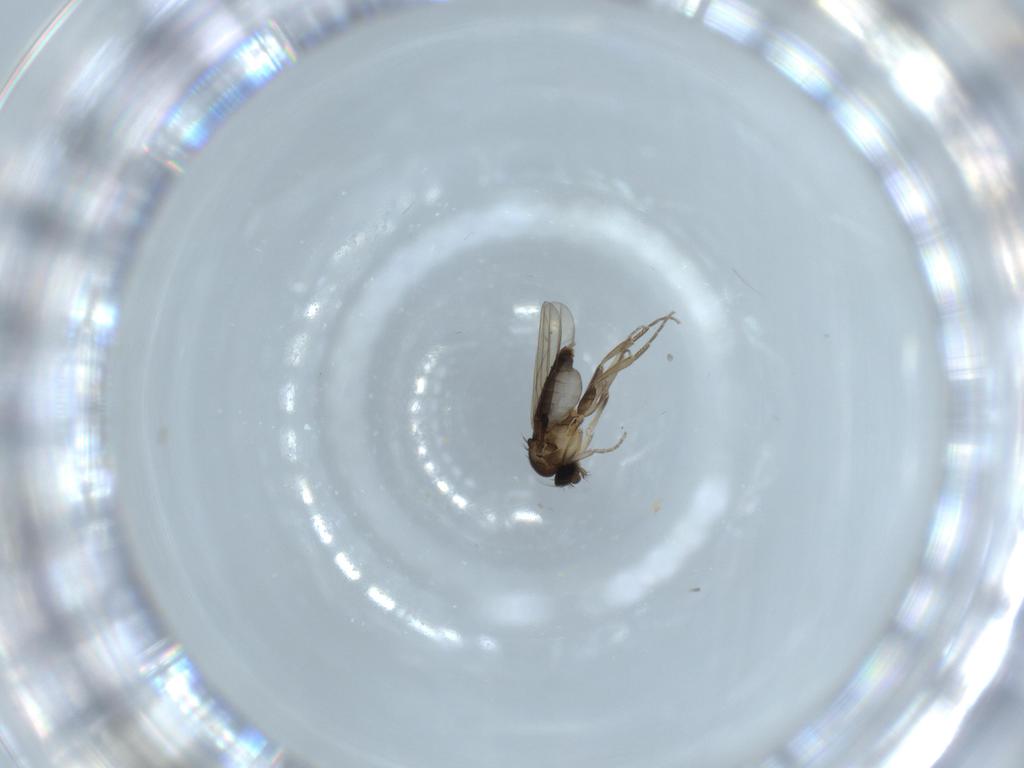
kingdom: Animalia
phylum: Arthropoda
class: Insecta
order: Diptera
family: Phoridae
